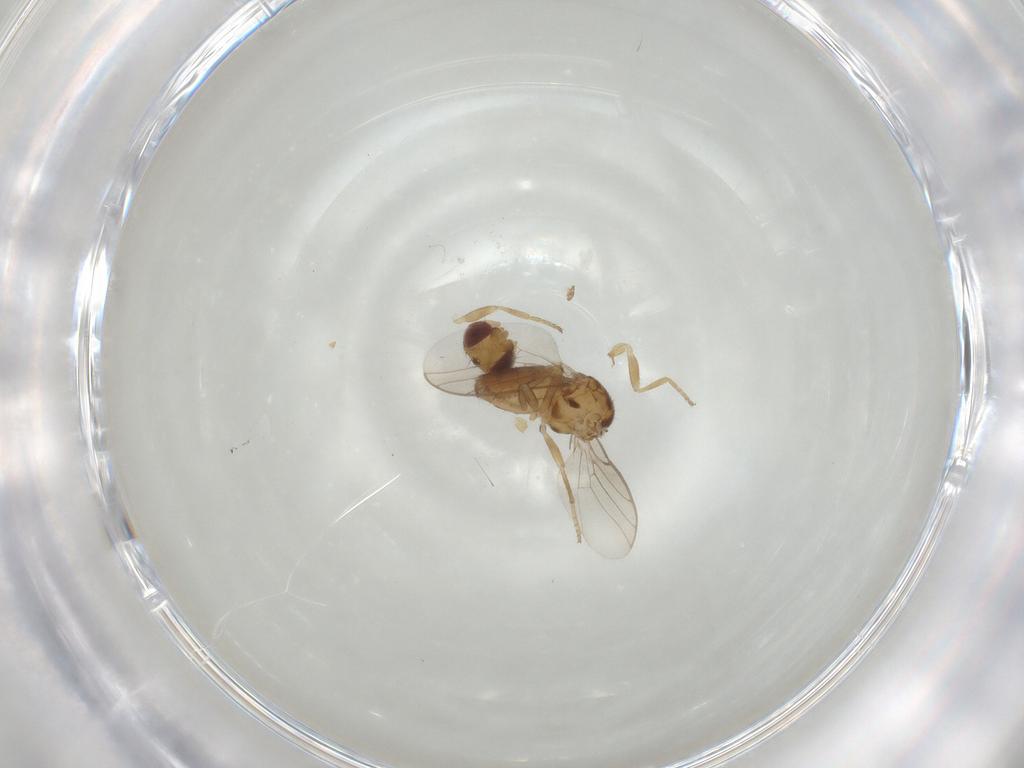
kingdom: Animalia
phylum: Arthropoda
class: Insecta
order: Diptera
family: Chloropidae
